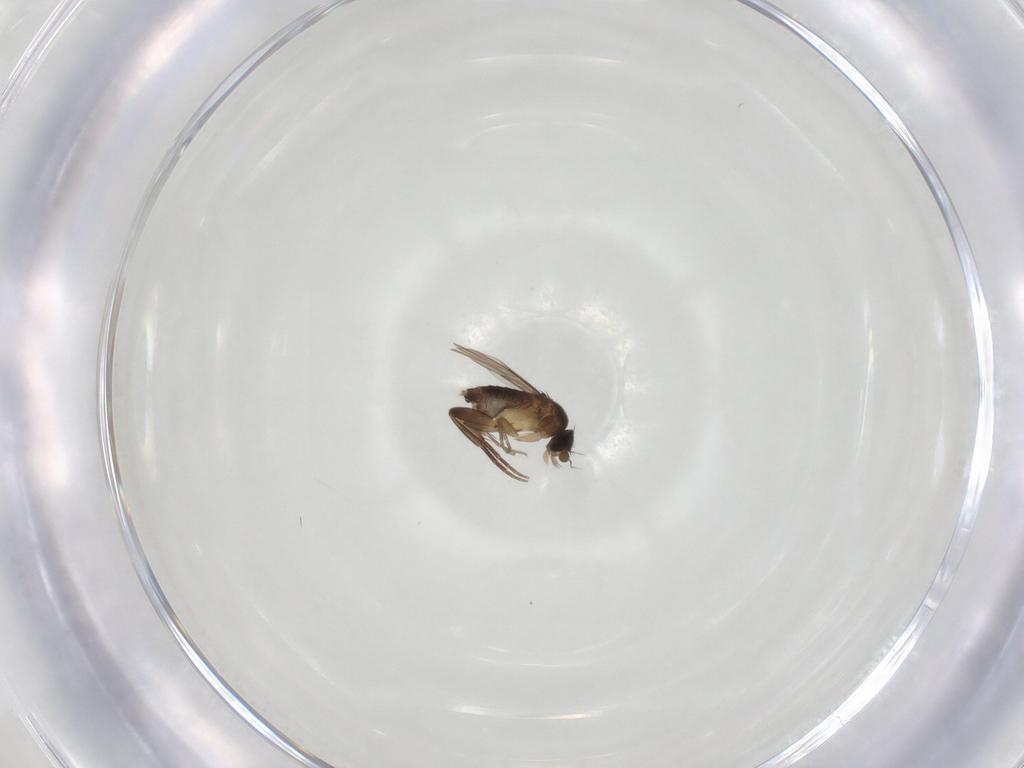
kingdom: Animalia
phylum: Arthropoda
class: Insecta
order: Diptera
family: Phoridae
